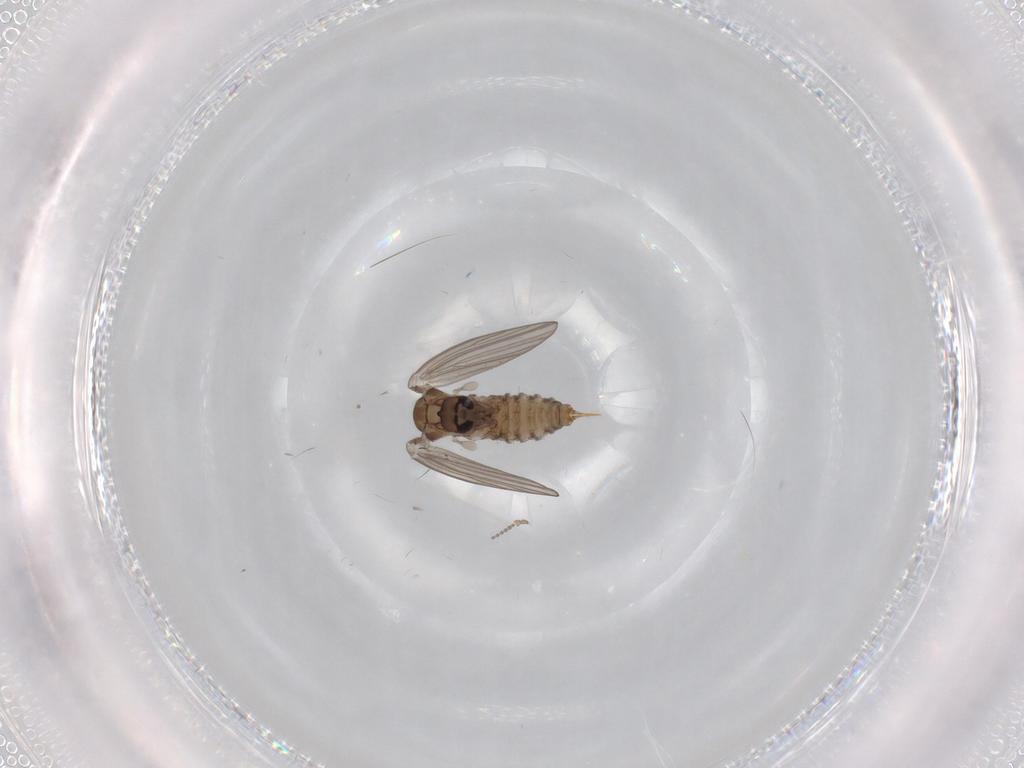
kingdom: Animalia
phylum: Arthropoda
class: Insecta
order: Diptera
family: Psychodidae
